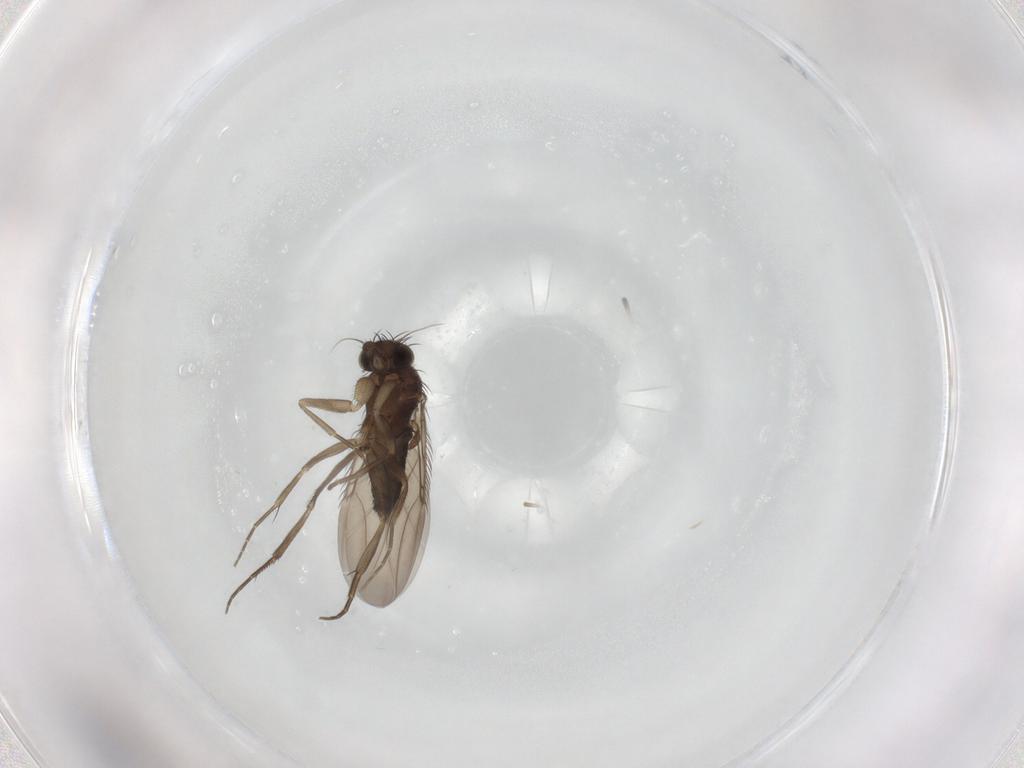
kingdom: Animalia
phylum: Arthropoda
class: Insecta
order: Diptera
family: Phoridae
